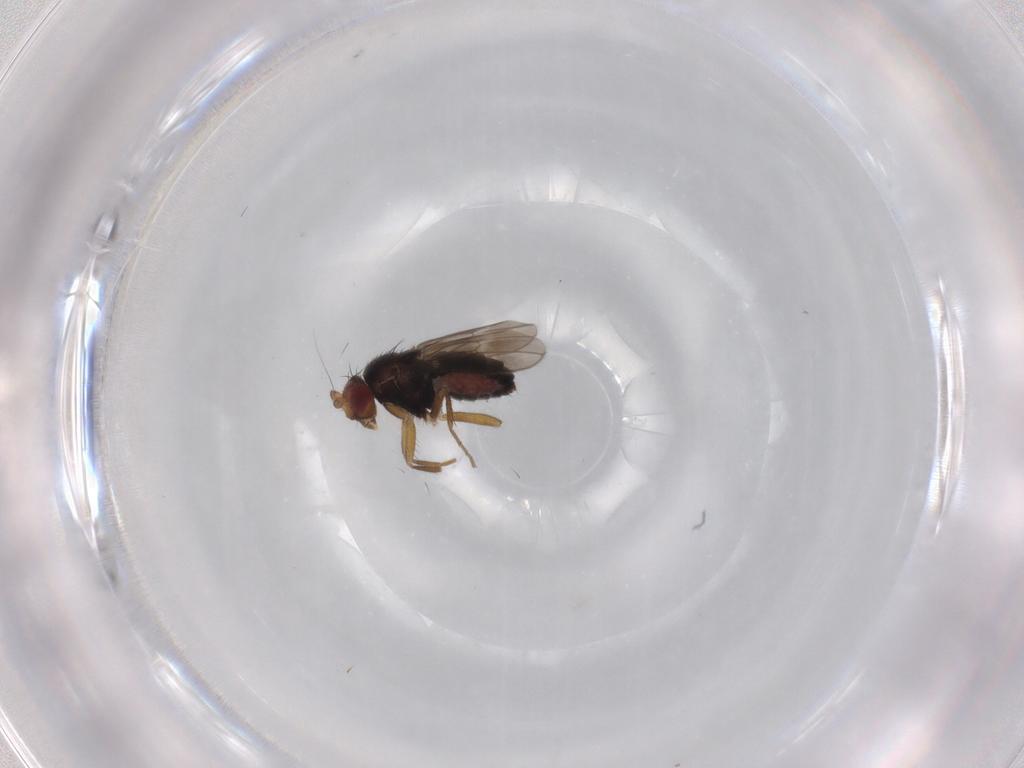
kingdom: Animalia
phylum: Arthropoda
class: Insecta
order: Diptera
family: Sphaeroceridae
